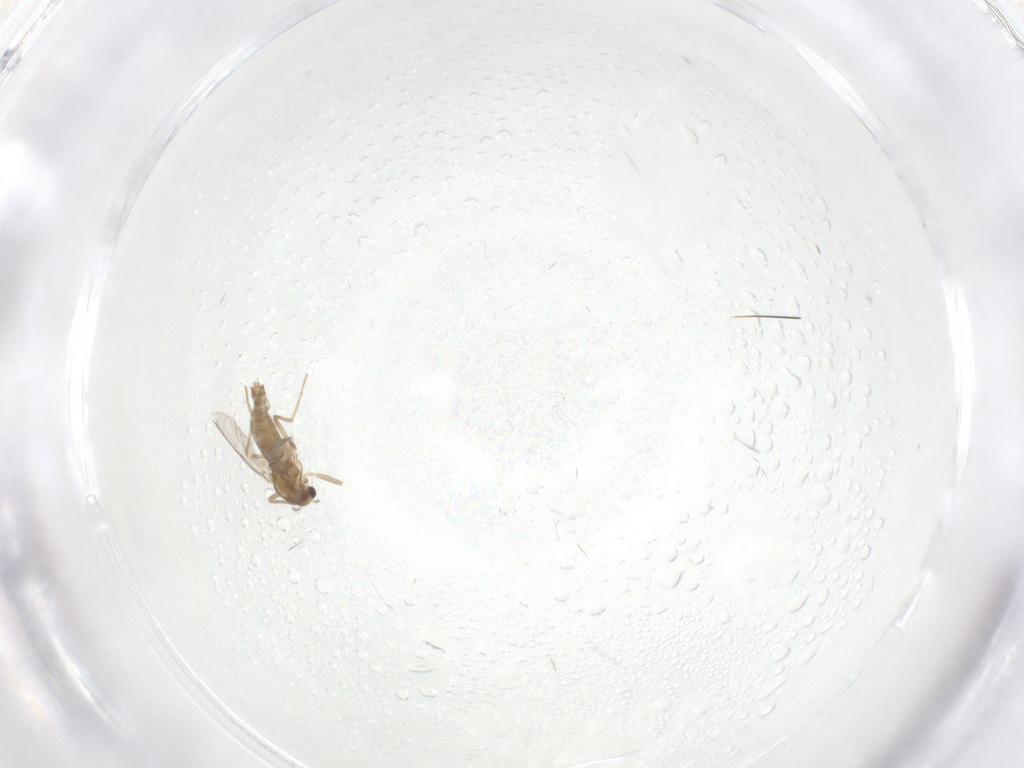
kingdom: Animalia
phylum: Arthropoda
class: Insecta
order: Diptera
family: Chironomidae
